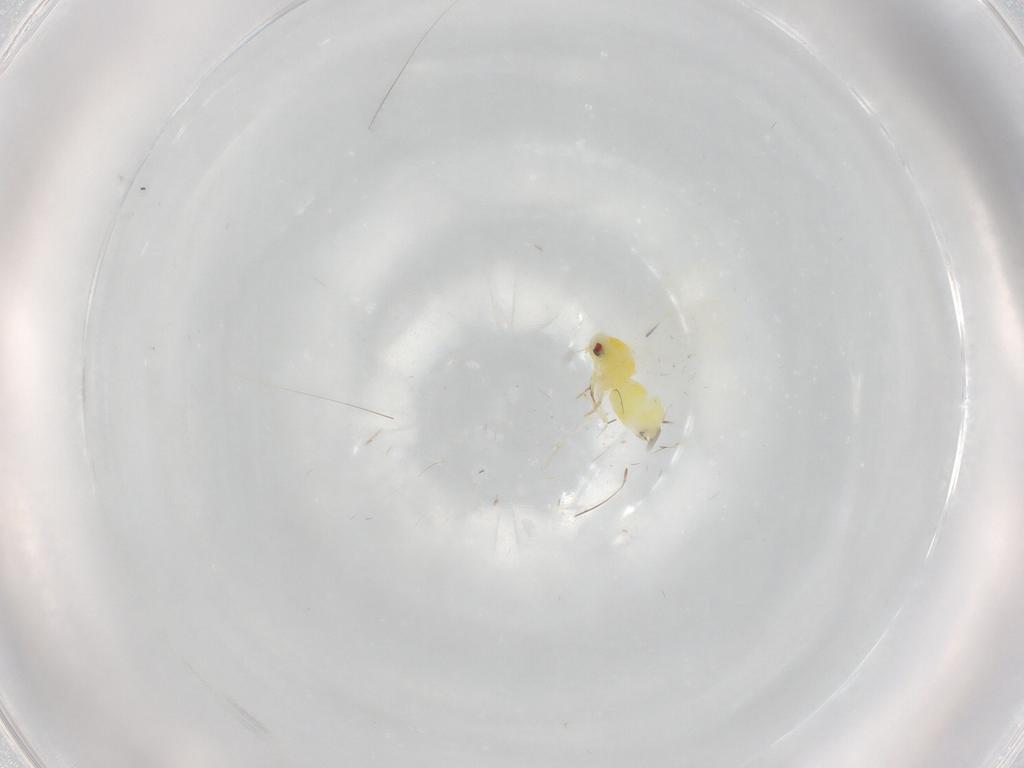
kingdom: Animalia
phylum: Arthropoda
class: Insecta
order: Hemiptera
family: Aleyrodidae
